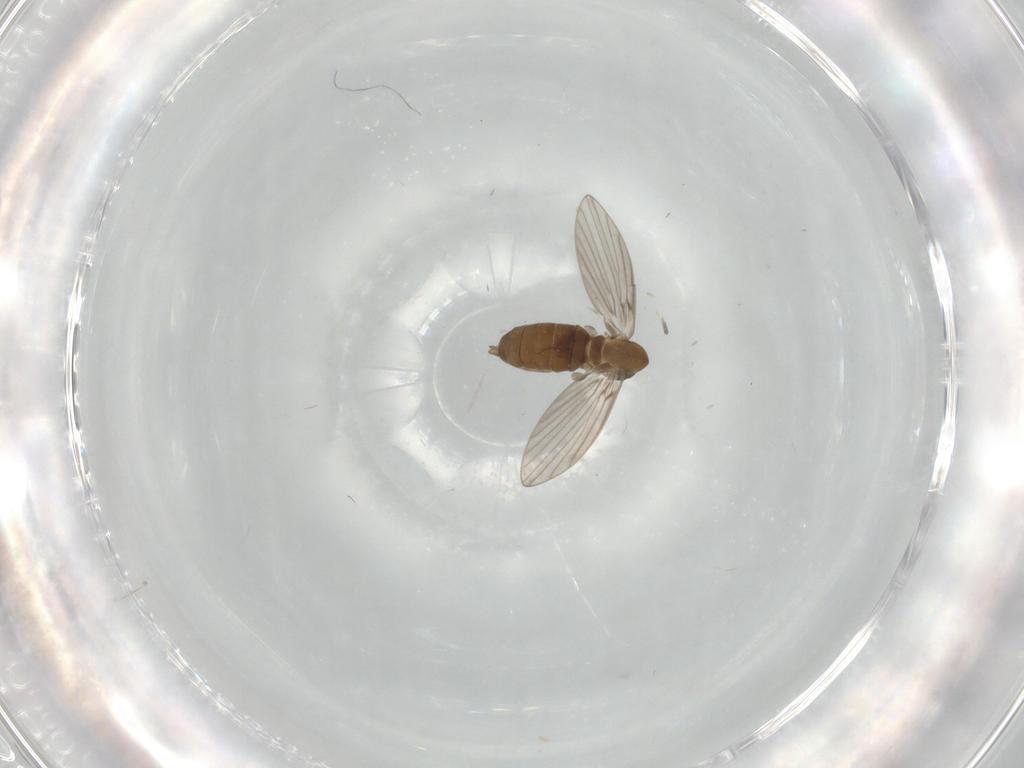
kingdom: Animalia
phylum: Arthropoda
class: Insecta
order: Diptera
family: Psychodidae
